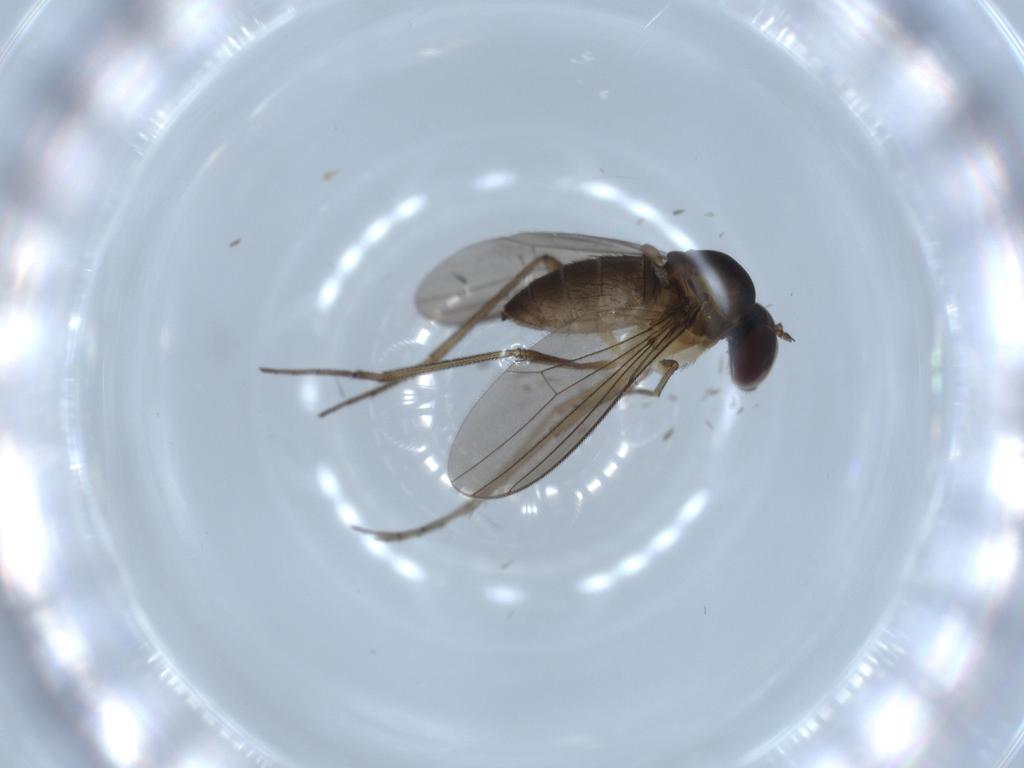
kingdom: Animalia
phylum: Arthropoda
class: Insecta
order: Diptera
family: Dolichopodidae
